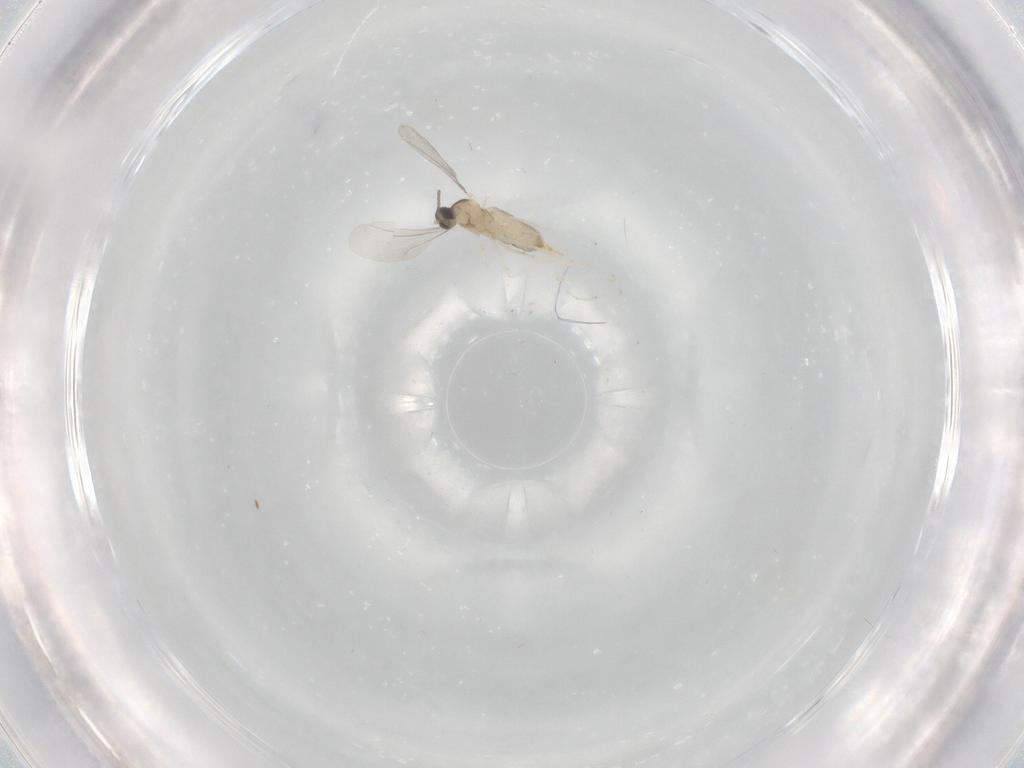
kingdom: Animalia
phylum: Arthropoda
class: Insecta
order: Diptera
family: Cecidomyiidae
